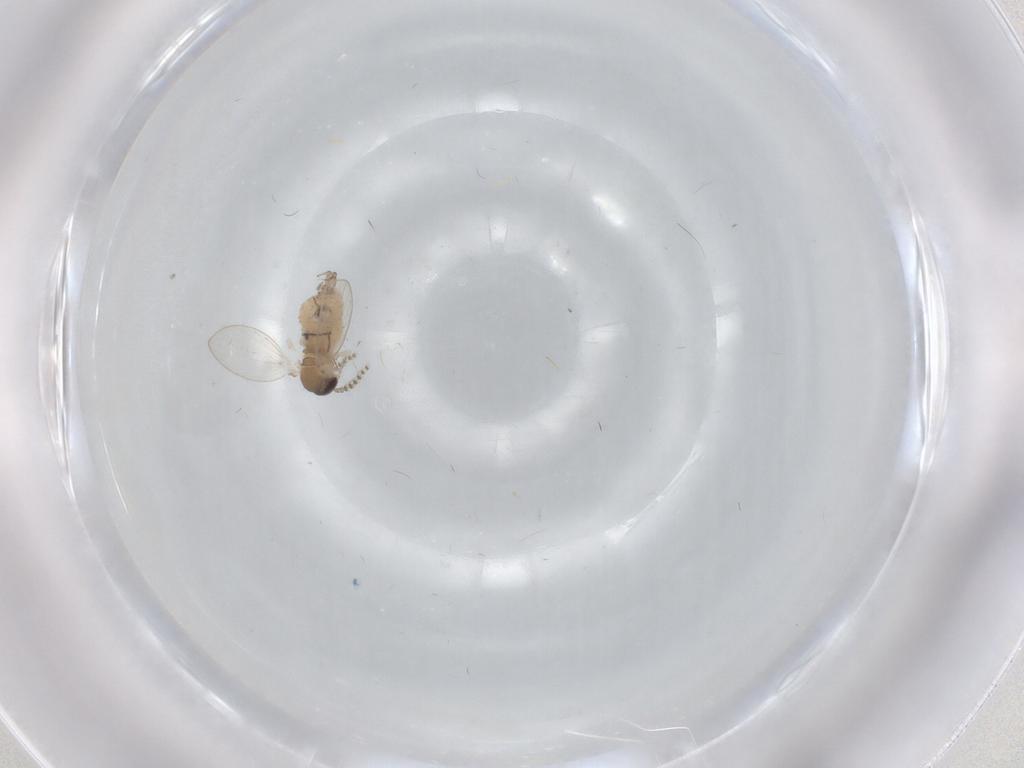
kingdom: Animalia
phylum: Arthropoda
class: Insecta
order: Diptera
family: Psychodidae
